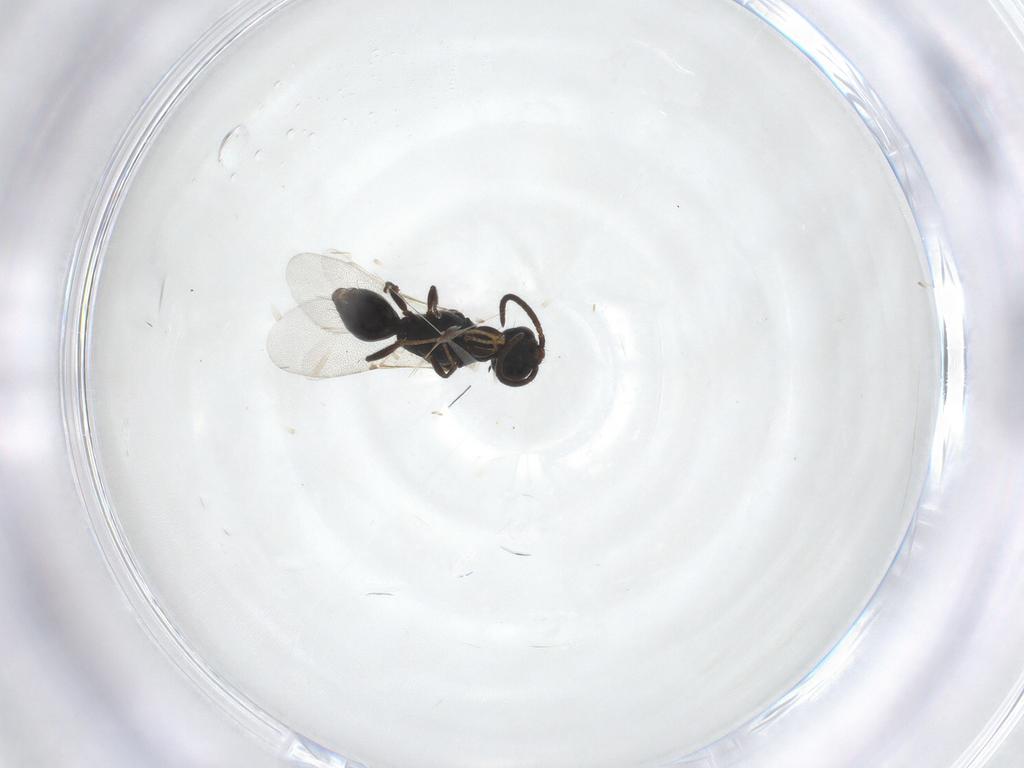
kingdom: Animalia
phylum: Arthropoda
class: Insecta
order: Hymenoptera
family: Bethylidae
